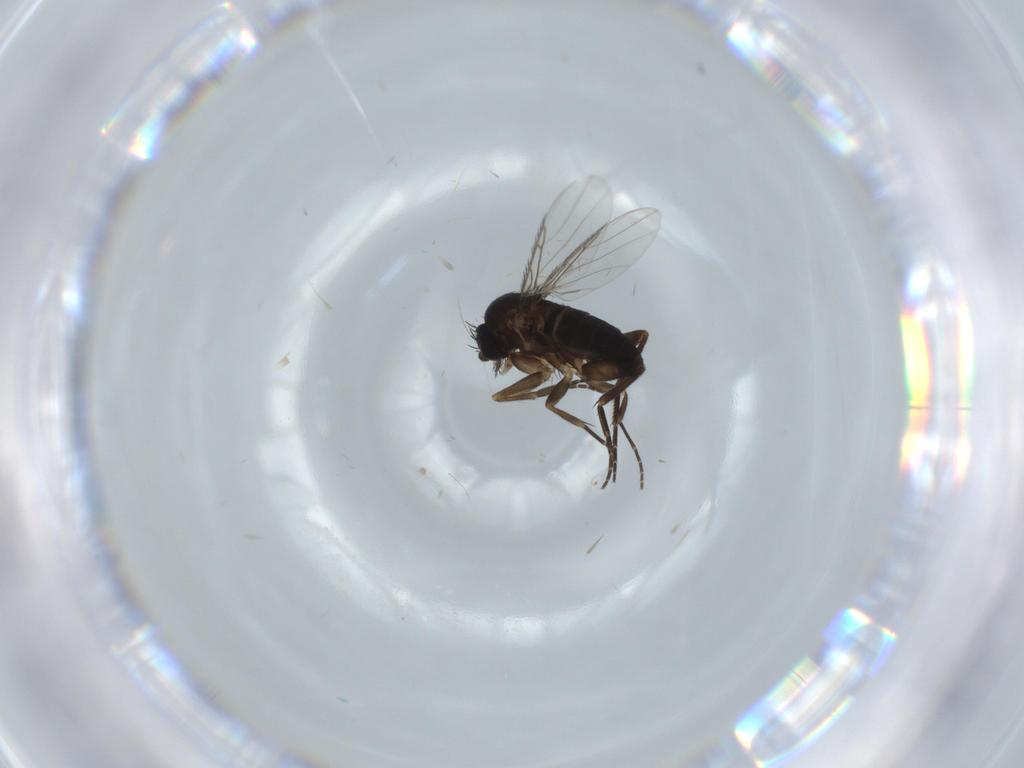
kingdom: Animalia
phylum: Arthropoda
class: Insecta
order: Diptera
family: Phoridae
